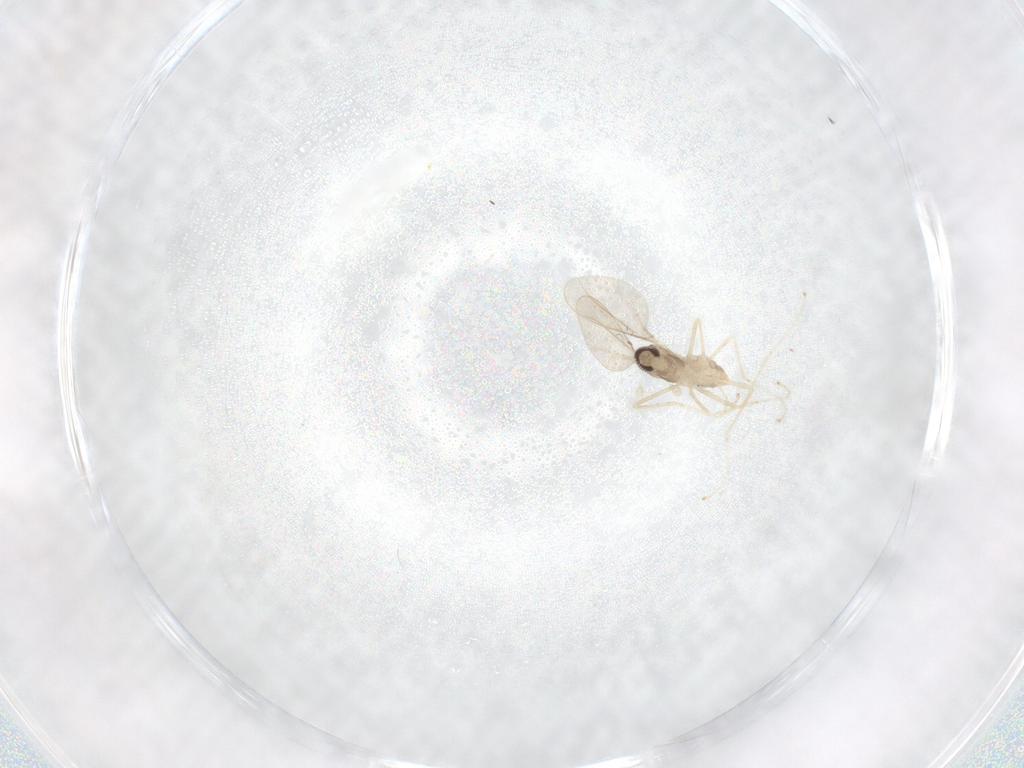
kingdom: Animalia
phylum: Arthropoda
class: Insecta
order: Diptera
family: Cecidomyiidae
